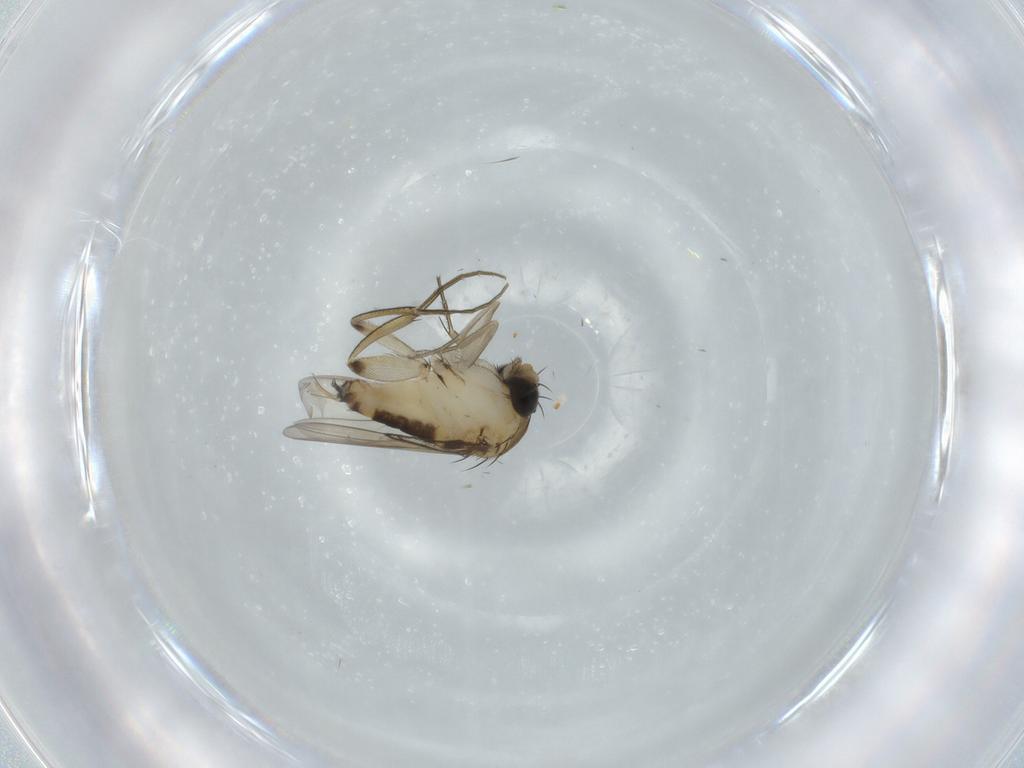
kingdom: Animalia
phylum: Arthropoda
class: Insecta
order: Diptera
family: Phoridae
